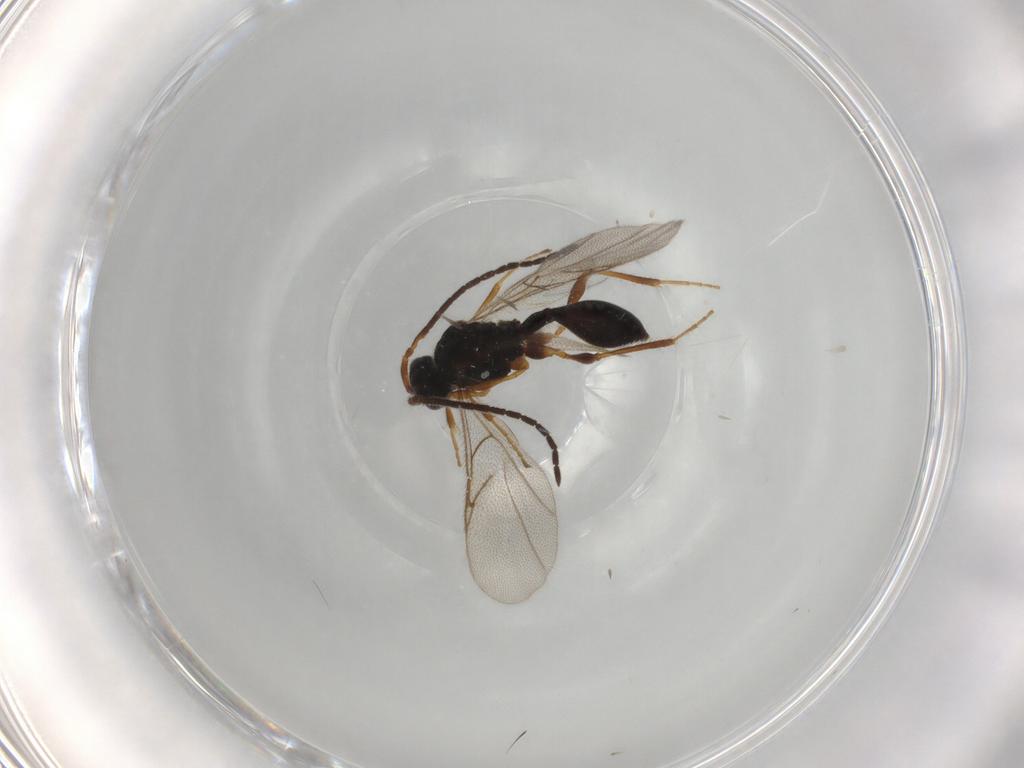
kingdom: Animalia
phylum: Arthropoda
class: Insecta
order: Hymenoptera
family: Diapriidae
